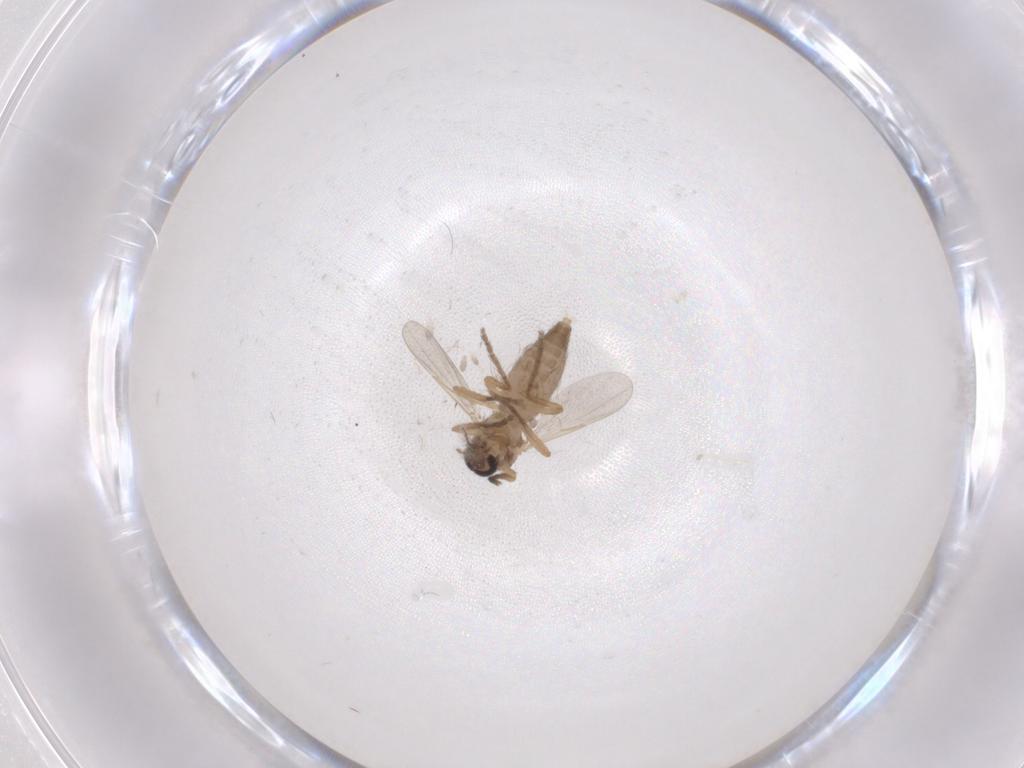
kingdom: Animalia
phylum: Arthropoda
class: Insecta
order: Diptera
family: Ceratopogonidae
